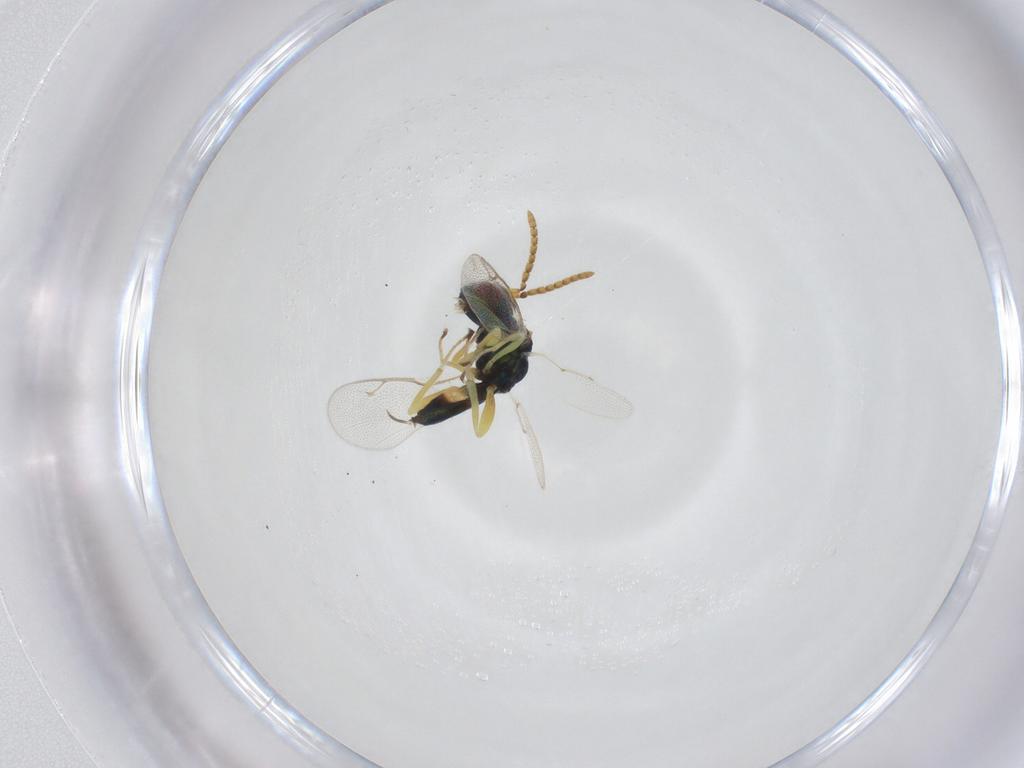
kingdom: Animalia
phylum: Arthropoda
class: Insecta
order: Hymenoptera
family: Pteromalidae
